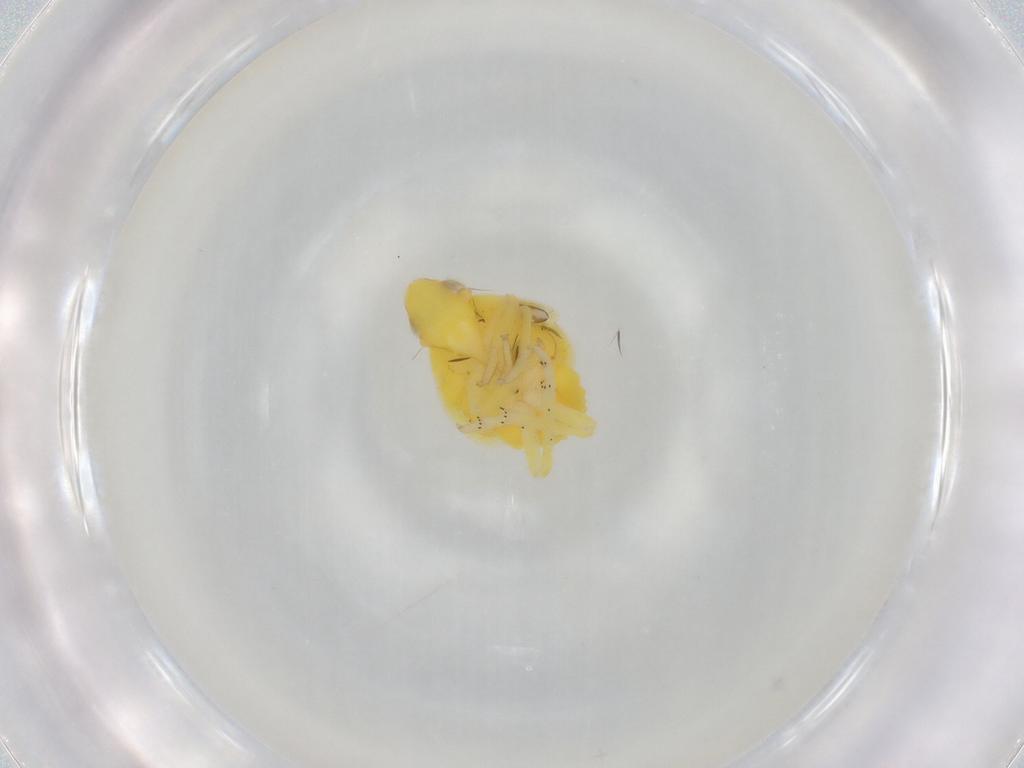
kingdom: Animalia
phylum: Arthropoda
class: Insecta
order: Hemiptera
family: Tropiduchidae
